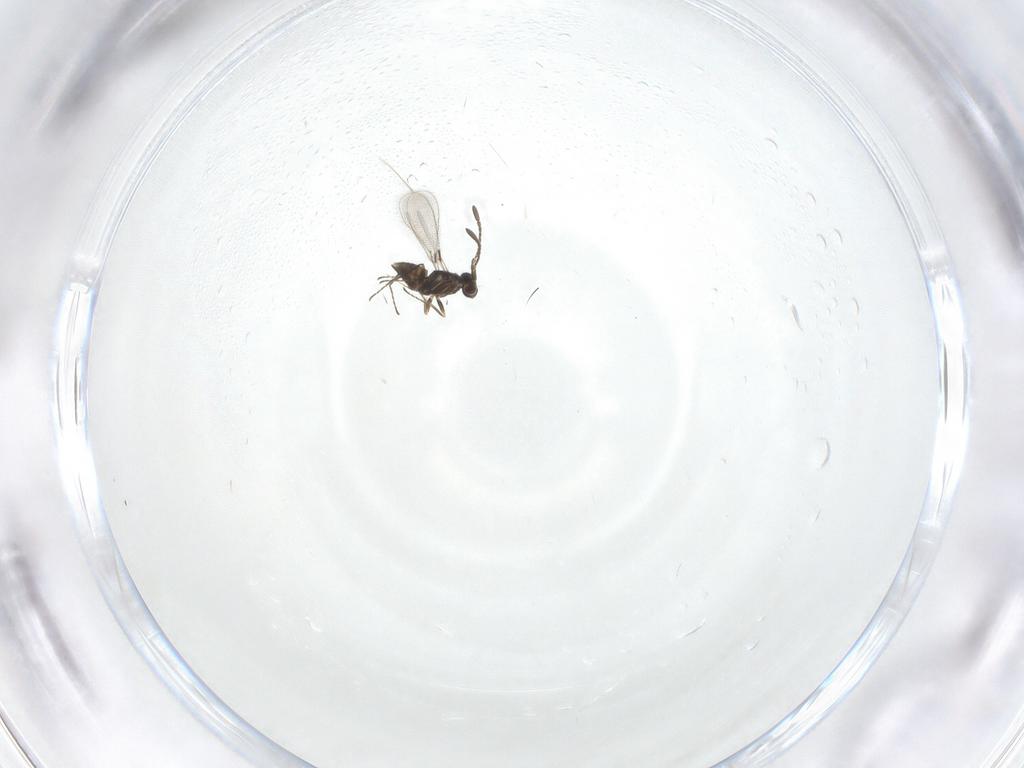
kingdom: Animalia
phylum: Arthropoda
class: Insecta
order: Hymenoptera
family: Mymaridae
